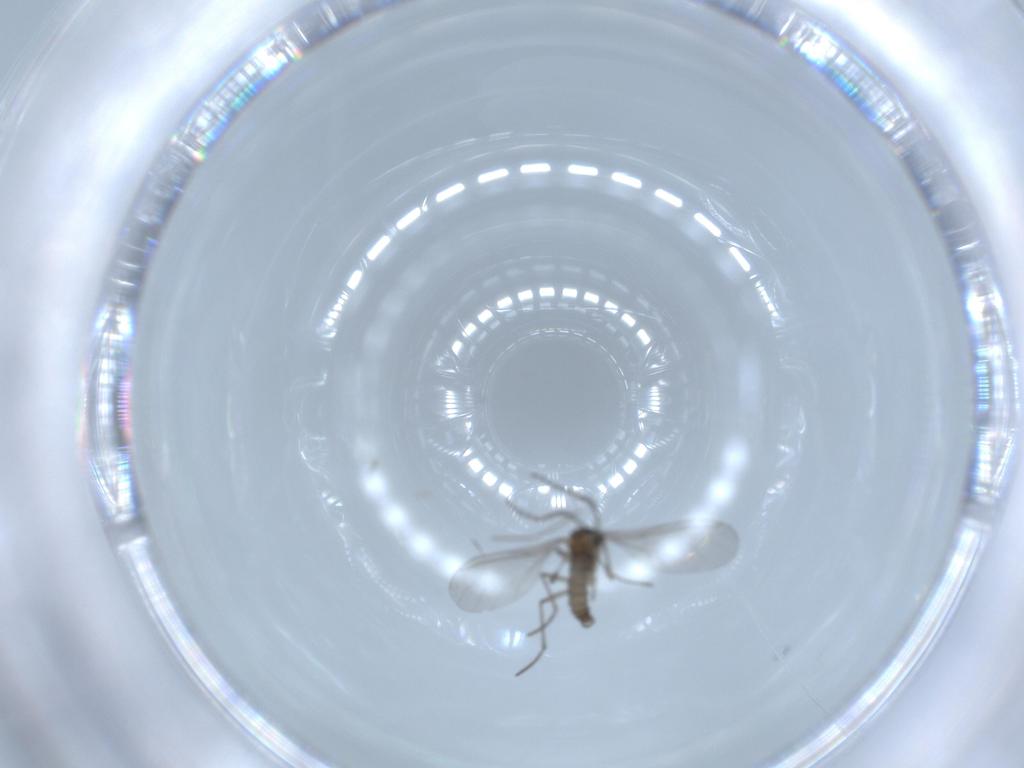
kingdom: Animalia
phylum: Arthropoda
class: Insecta
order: Diptera
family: Sciaridae
